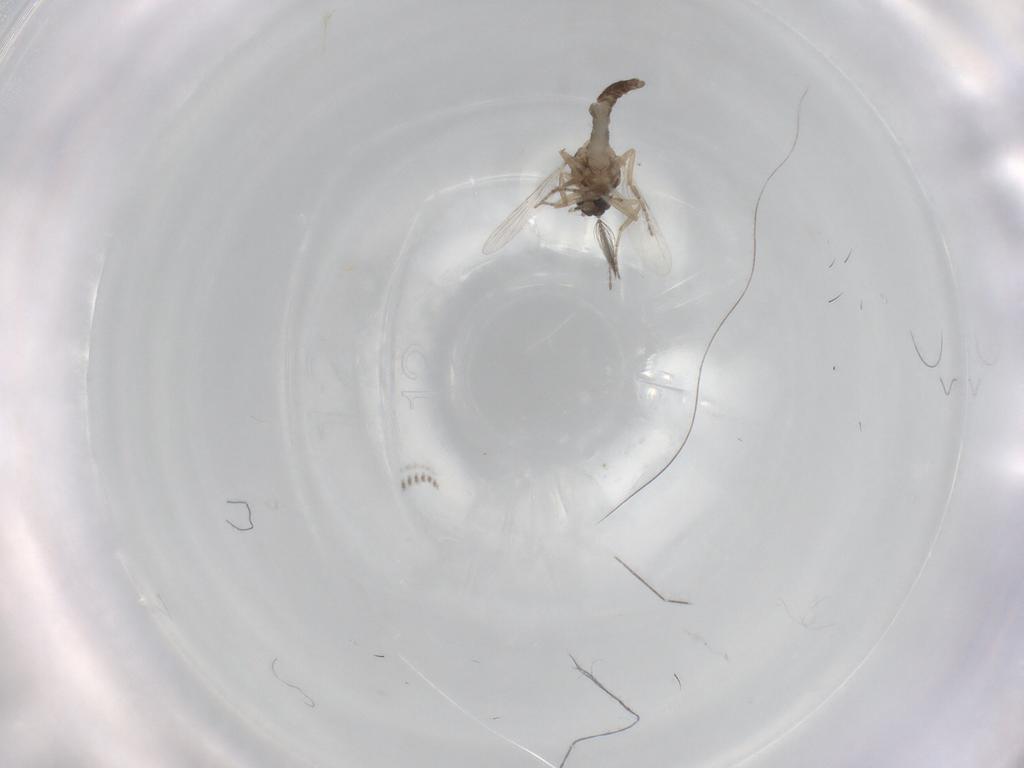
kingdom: Animalia
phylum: Arthropoda
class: Insecta
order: Diptera
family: Ceratopogonidae
